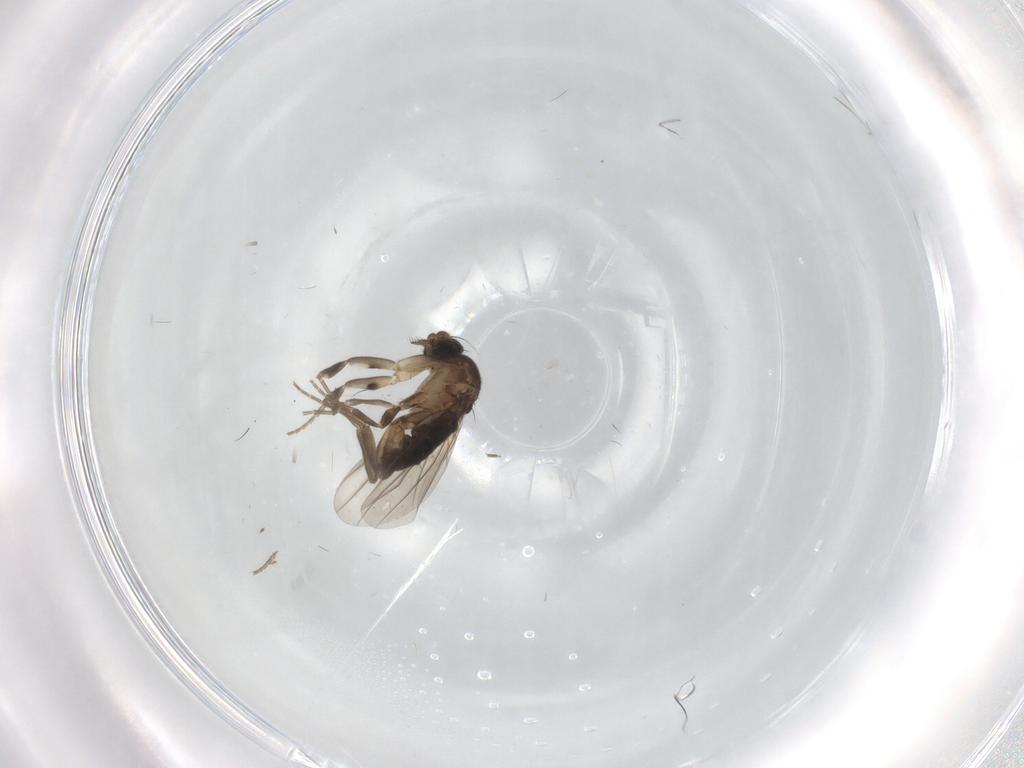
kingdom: Animalia
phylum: Arthropoda
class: Insecta
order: Diptera
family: Phoridae
